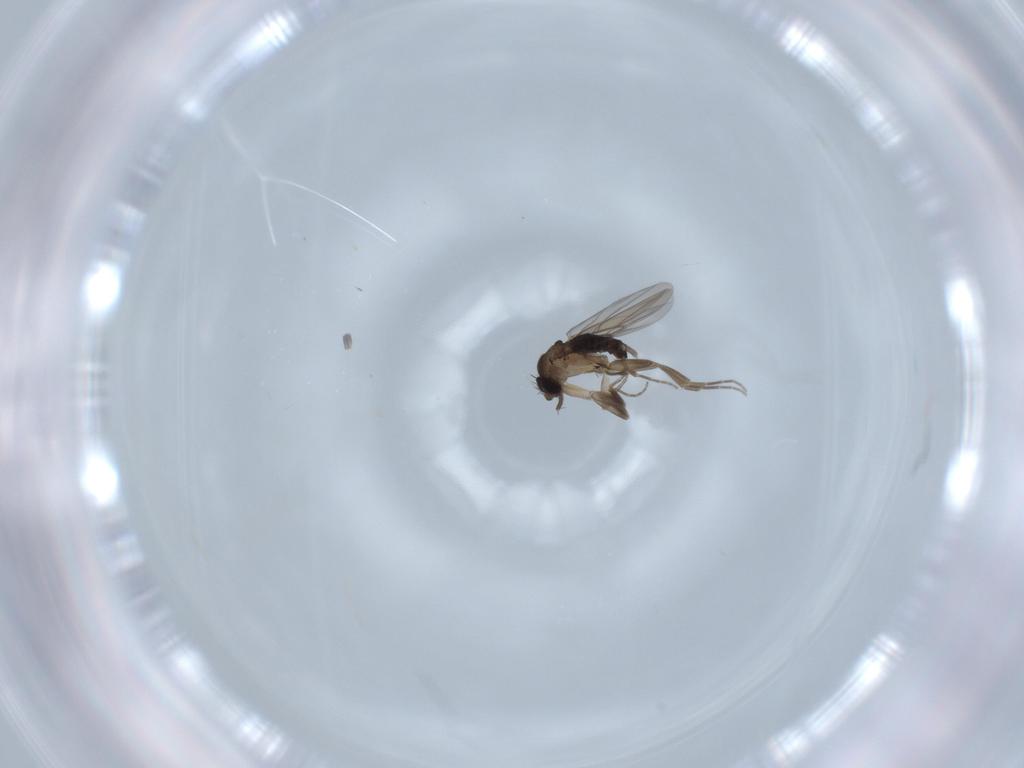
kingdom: Animalia
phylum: Arthropoda
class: Insecta
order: Diptera
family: Phoridae
